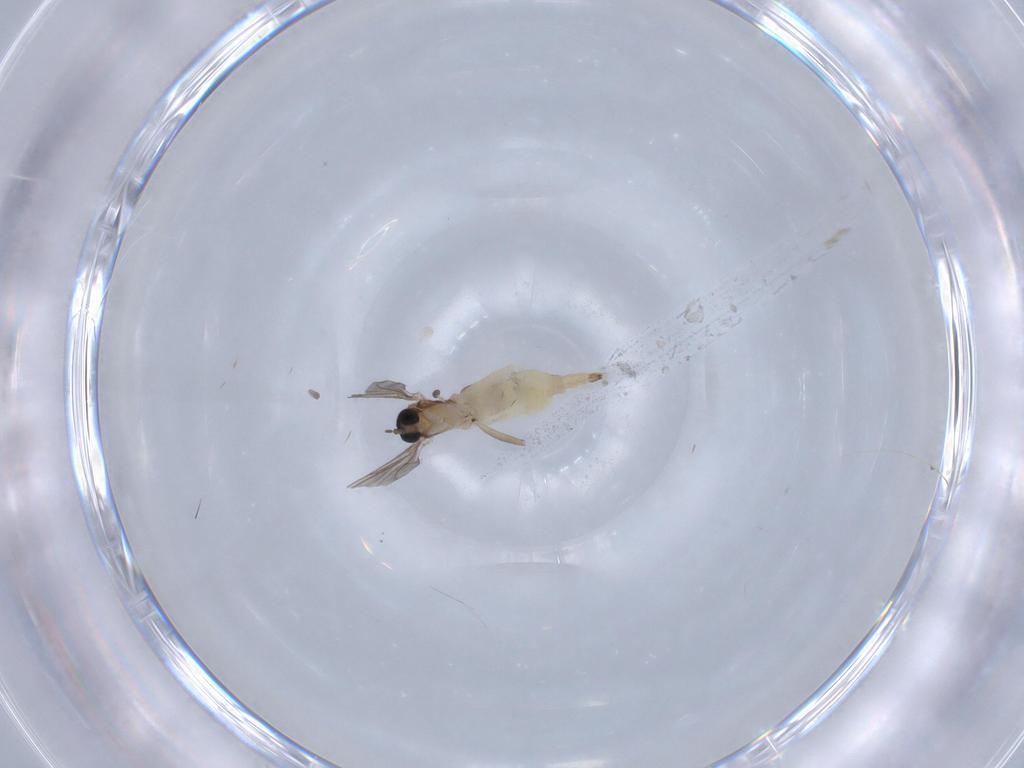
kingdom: Animalia
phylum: Arthropoda
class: Insecta
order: Diptera
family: Sciaridae
